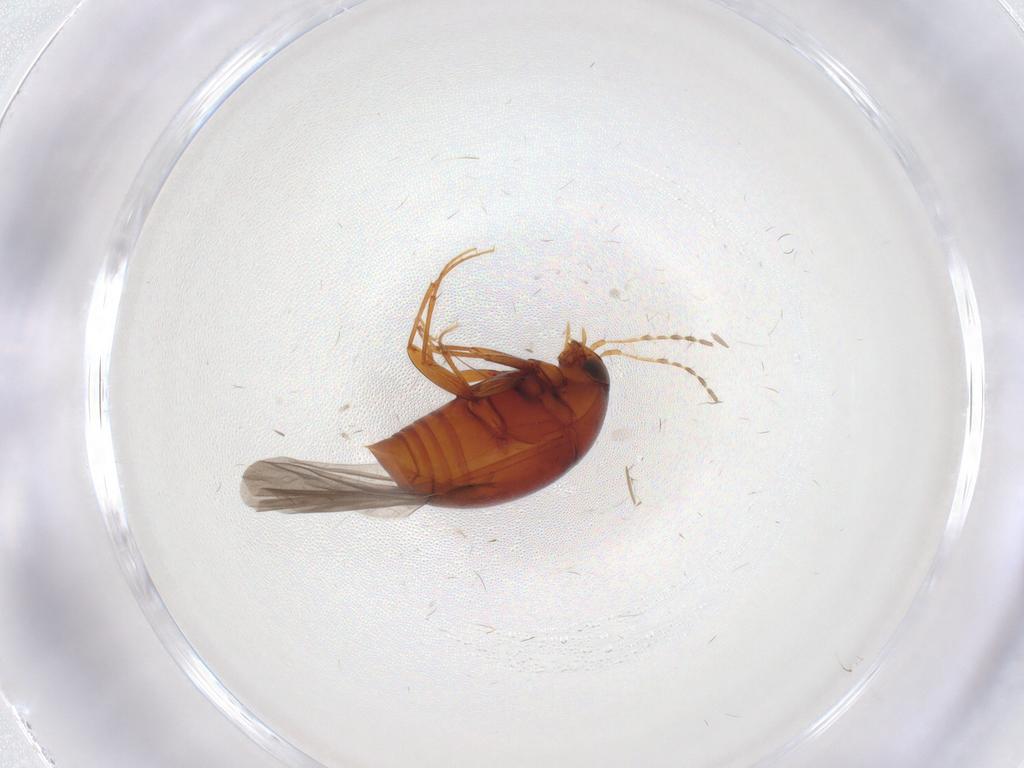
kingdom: Animalia
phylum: Arthropoda
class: Insecta
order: Coleoptera
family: Staphylinidae
